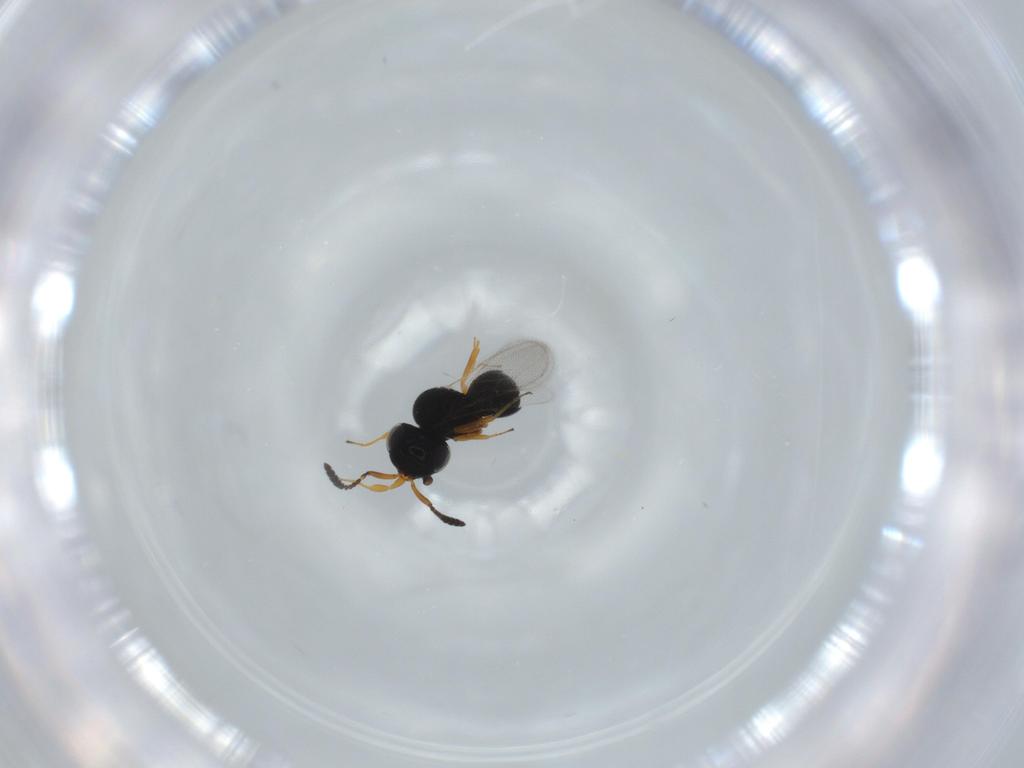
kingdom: Animalia
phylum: Arthropoda
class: Insecta
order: Hymenoptera
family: Scelionidae
